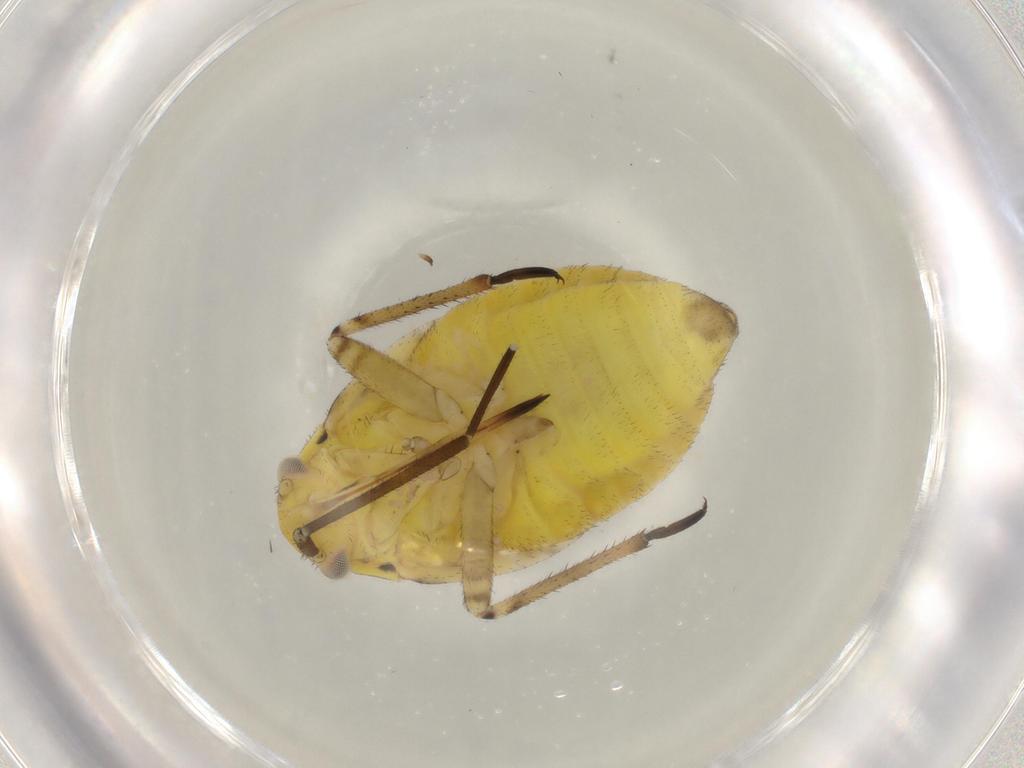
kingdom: Animalia
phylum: Arthropoda
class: Insecta
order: Hemiptera
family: Miridae
